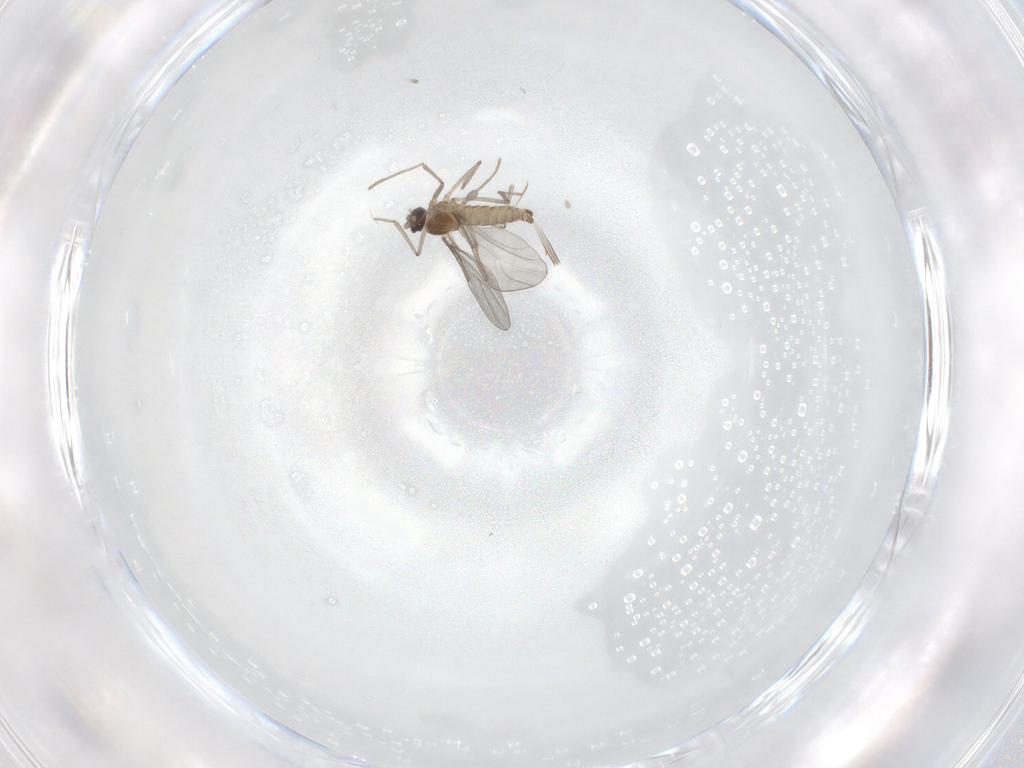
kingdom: Animalia
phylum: Arthropoda
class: Insecta
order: Diptera
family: Cecidomyiidae
